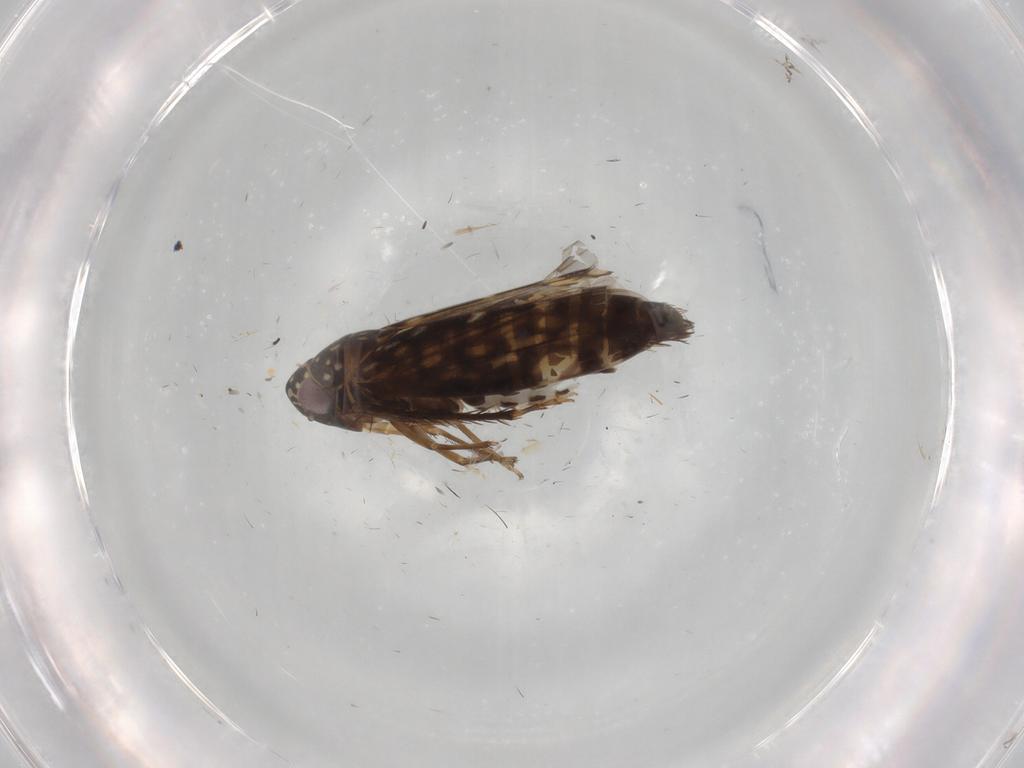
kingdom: Animalia
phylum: Arthropoda
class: Insecta
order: Hemiptera
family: Cicadellidae
